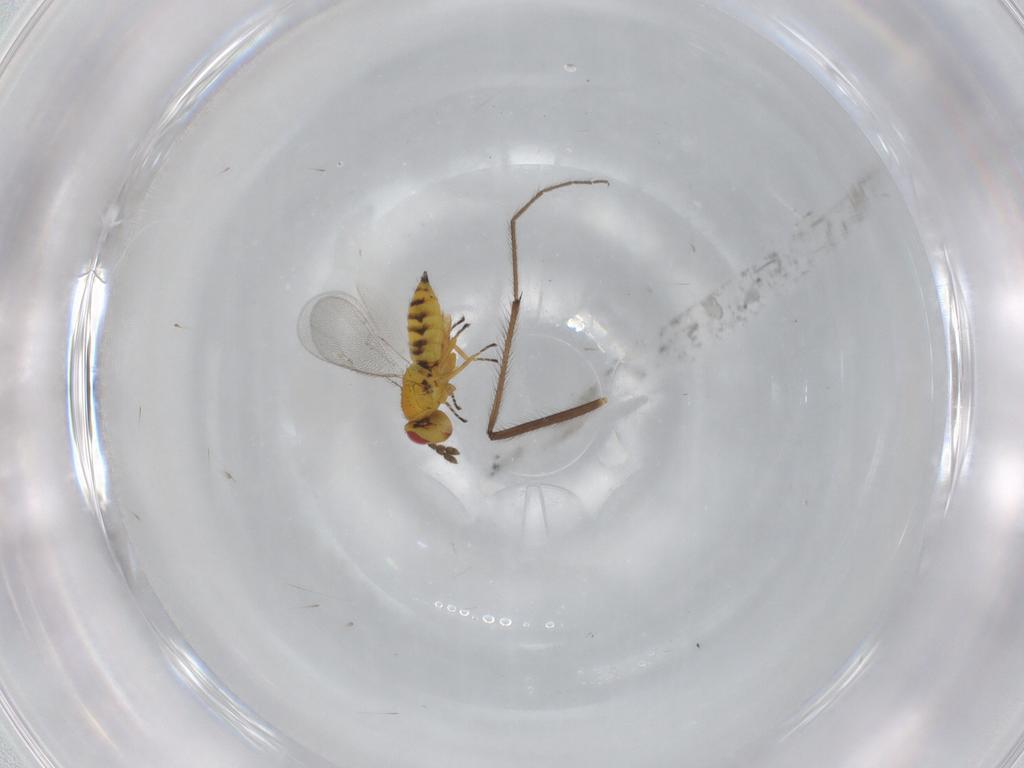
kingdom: Animalia
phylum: Arthropoda
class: Insecta
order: Hymenoptera
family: Eulophidae
